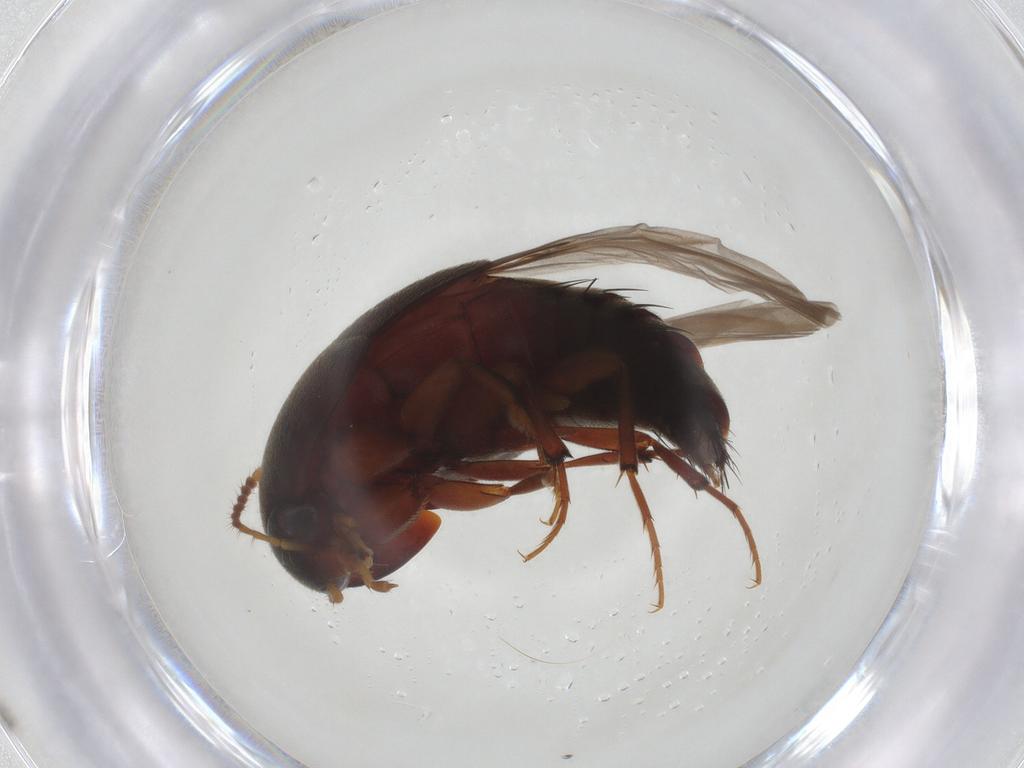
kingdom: Animalia
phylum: Arthropoda
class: Insecta
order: Coleoptera
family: Staphylinidae
